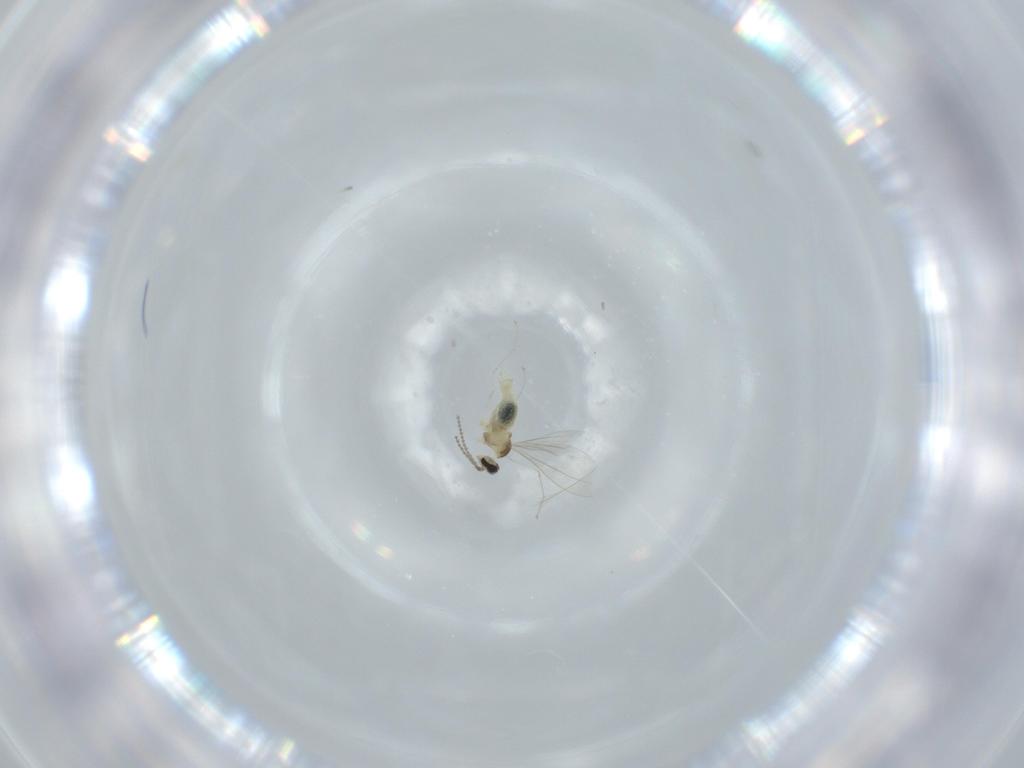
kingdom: Animalia
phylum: Arthropoda
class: Insecta
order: Diptera
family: Cecidomyiidae
